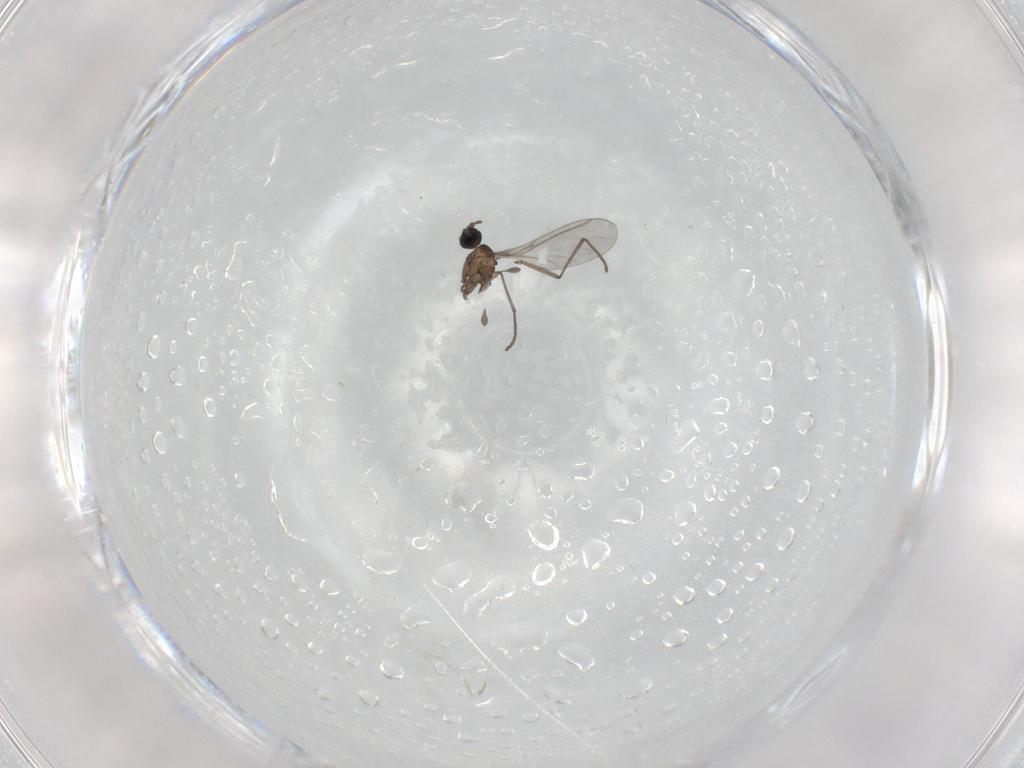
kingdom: Animalia
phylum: Arthropoda
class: Insecta
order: Diptera
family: Sciaridae
